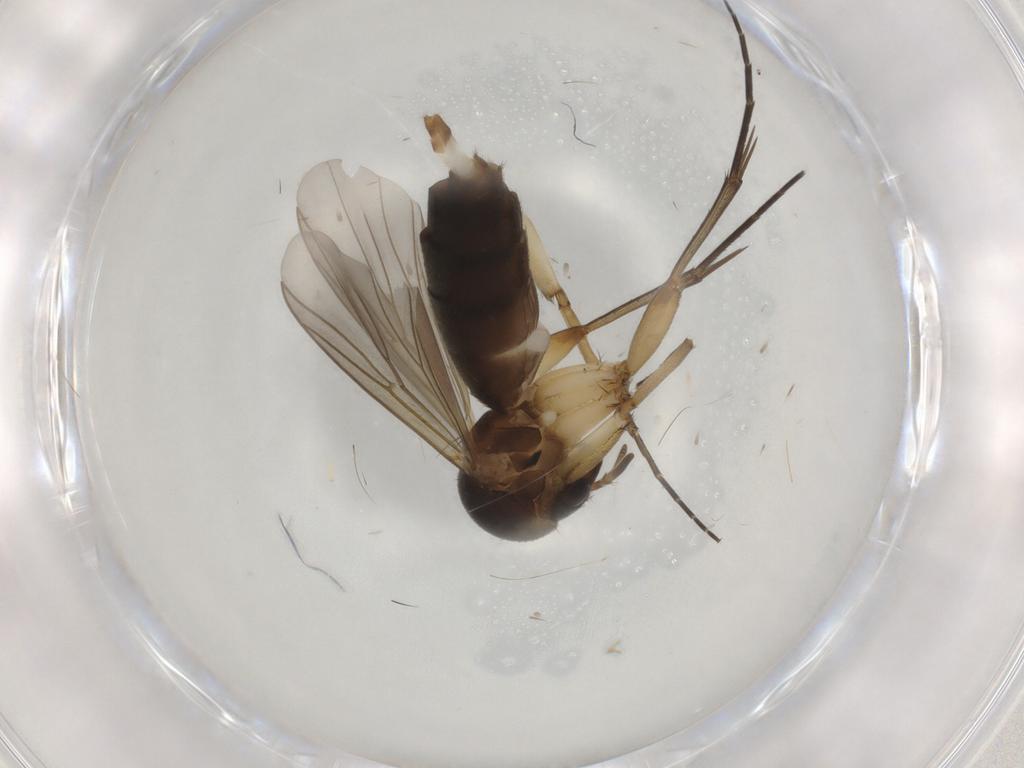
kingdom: Animalia
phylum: Arthropoda
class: Insecta
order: Diptera
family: Mycetophilidae
